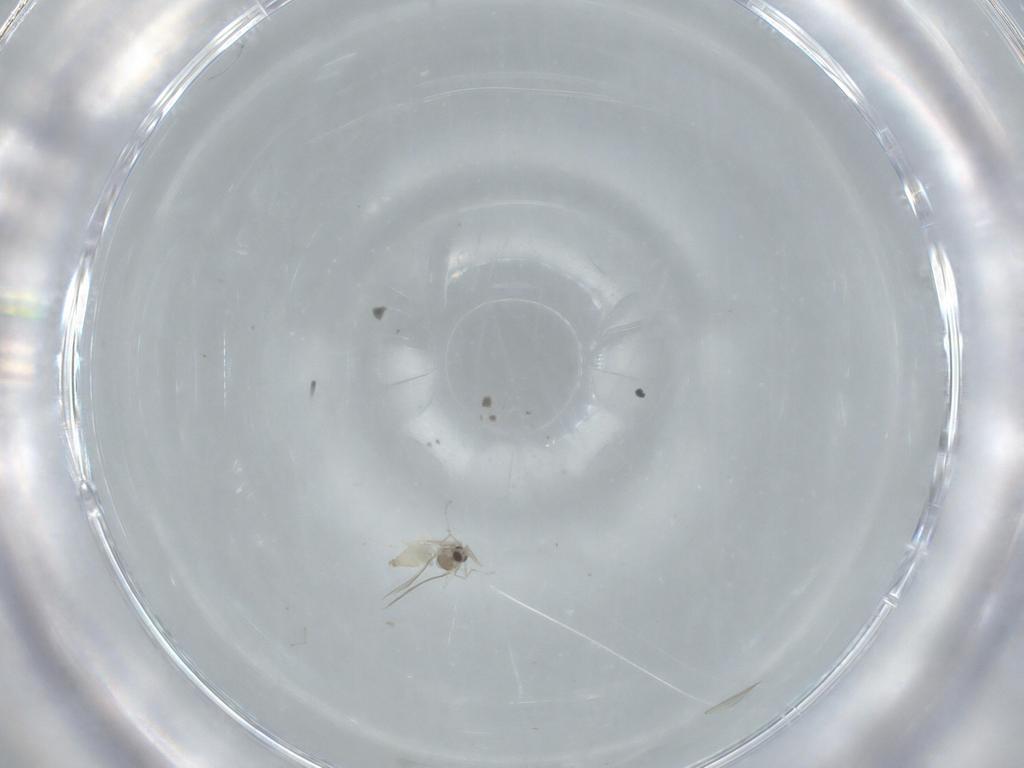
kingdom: Animalia
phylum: Arthropoda
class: Insecta
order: Diptera
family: Cecidomyiidae
